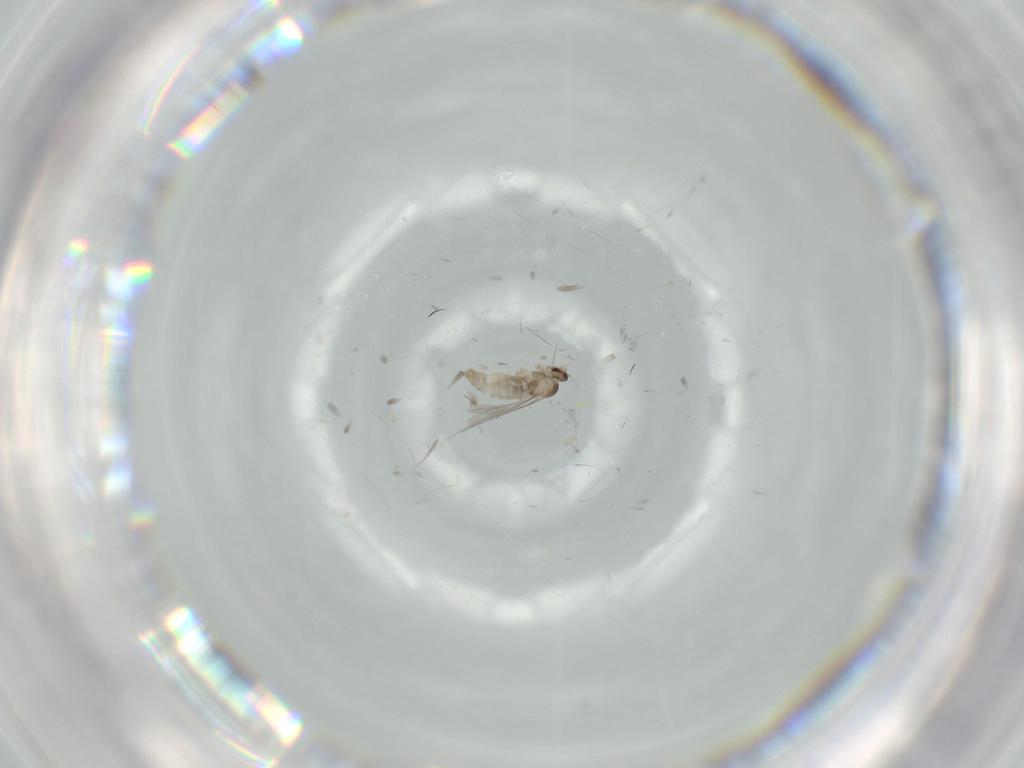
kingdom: Animalia
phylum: Arthropoda
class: Insecta
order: Diptera
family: Cecidomyiidae
